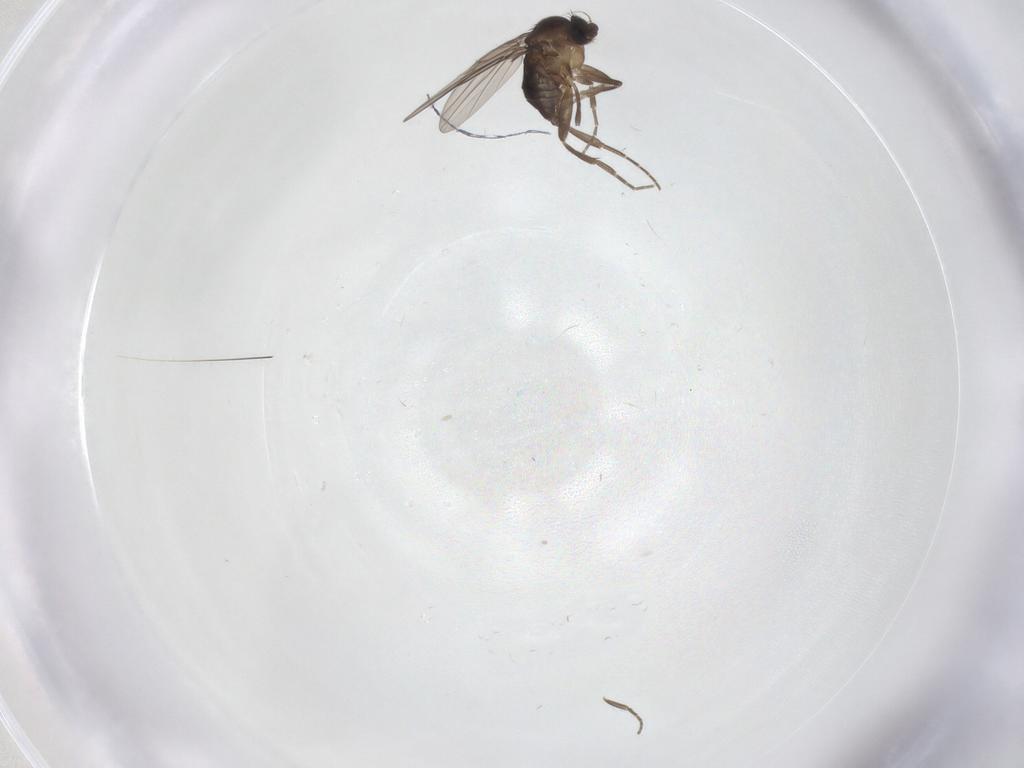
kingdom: Animalia
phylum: Arthropoda
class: Insecta
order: Diptera
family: Phoridae
